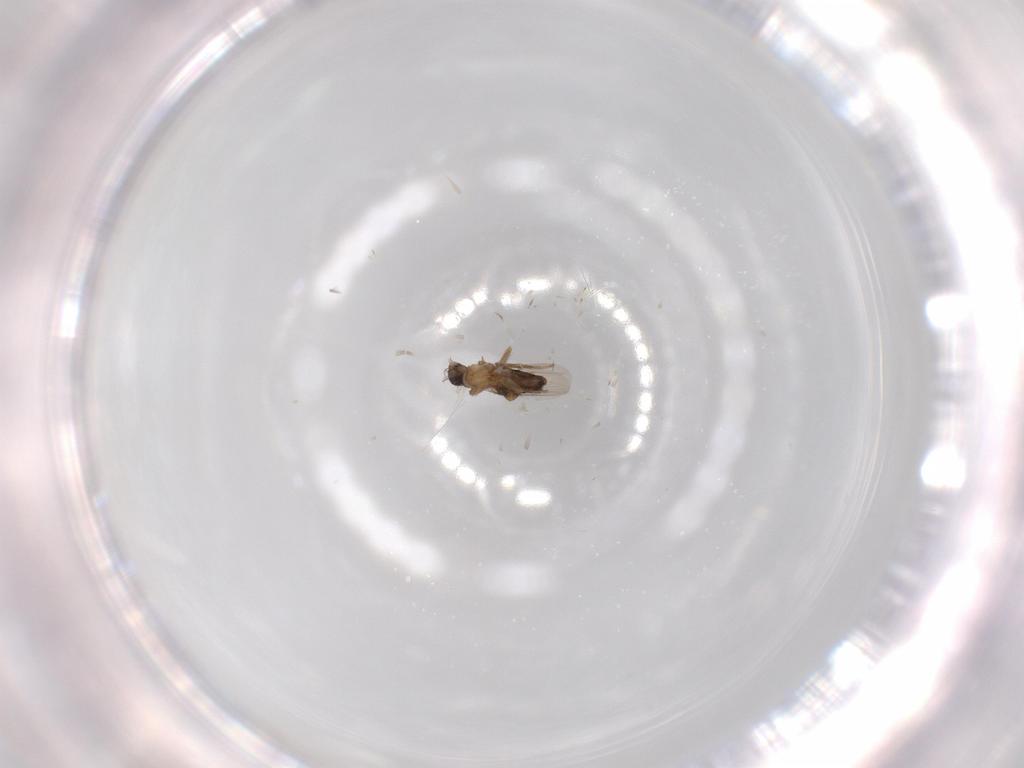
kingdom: Animalia
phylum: Arthropoda
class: Insecta
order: Diptera
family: Phoridae
